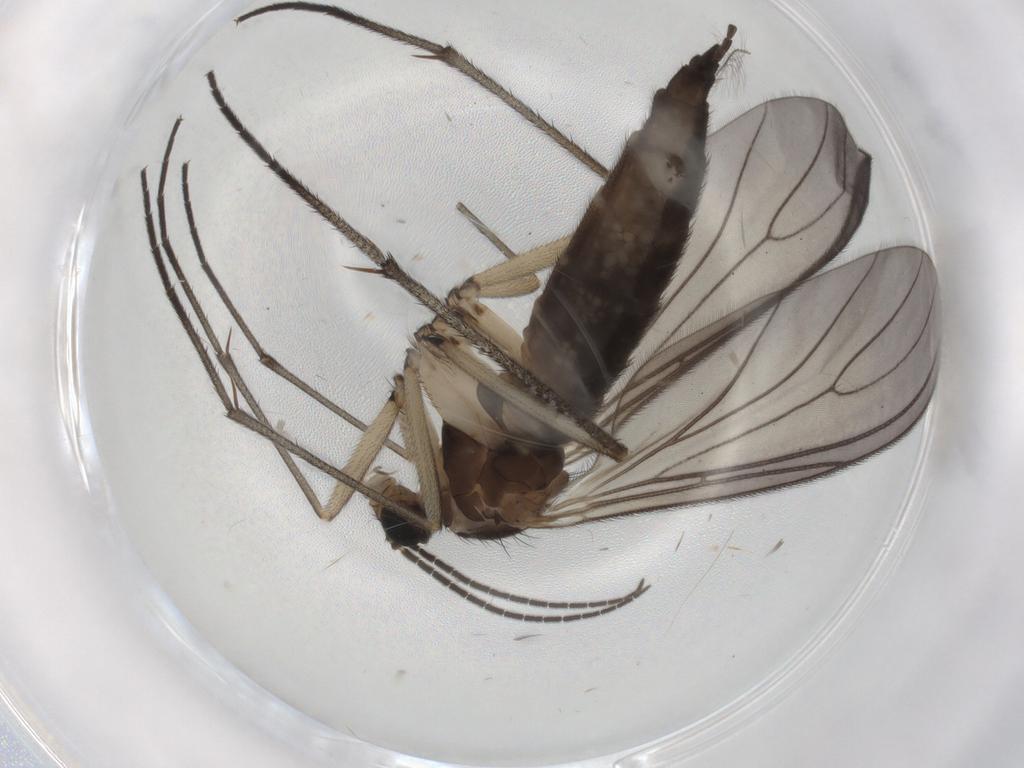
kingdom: Animalia
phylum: Arthropoda
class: Insecta
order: Diptera
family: Sciaridae
